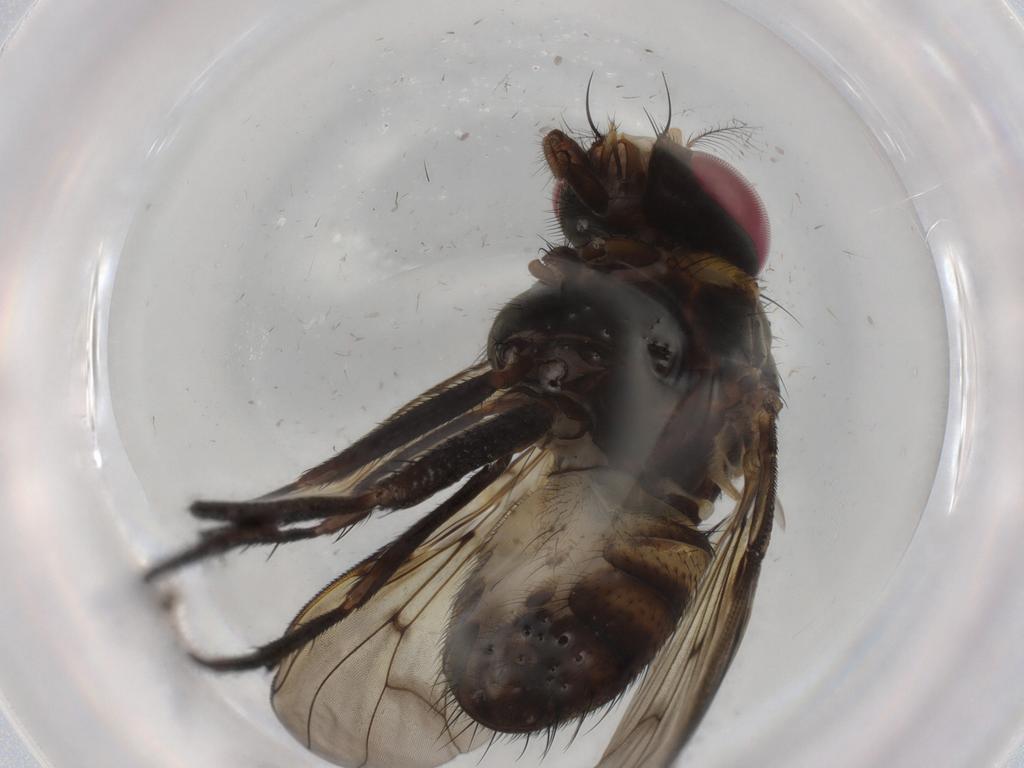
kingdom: Animalia
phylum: Arthropoda
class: Insecta
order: Diptera
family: Muscidae
